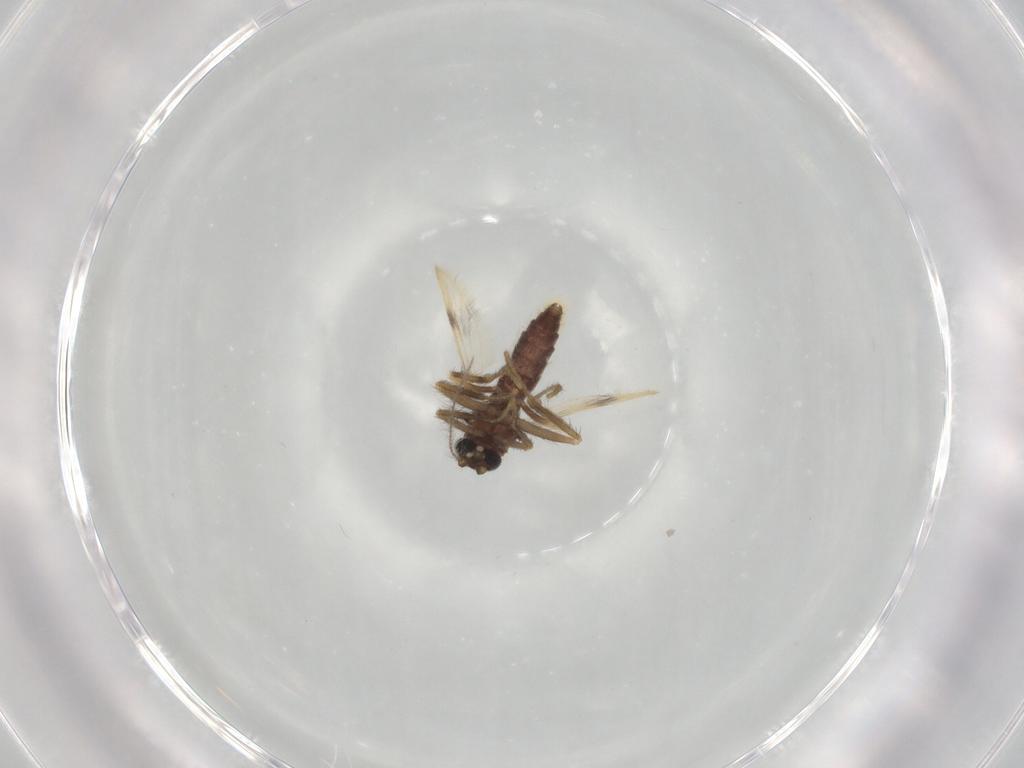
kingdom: Animalia
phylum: Arthropoda
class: Insecta
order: Diptera
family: Corethrellidae
